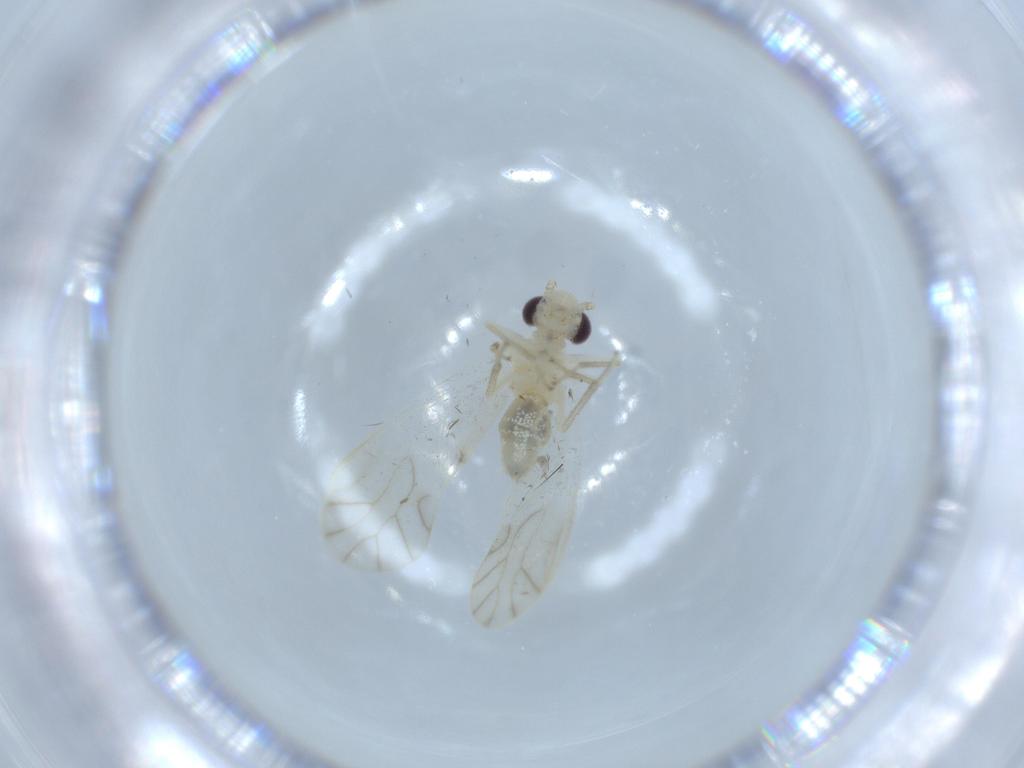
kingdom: Animalia
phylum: Arthropoda
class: Insecta
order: Psocodea
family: Caeciliusidae
